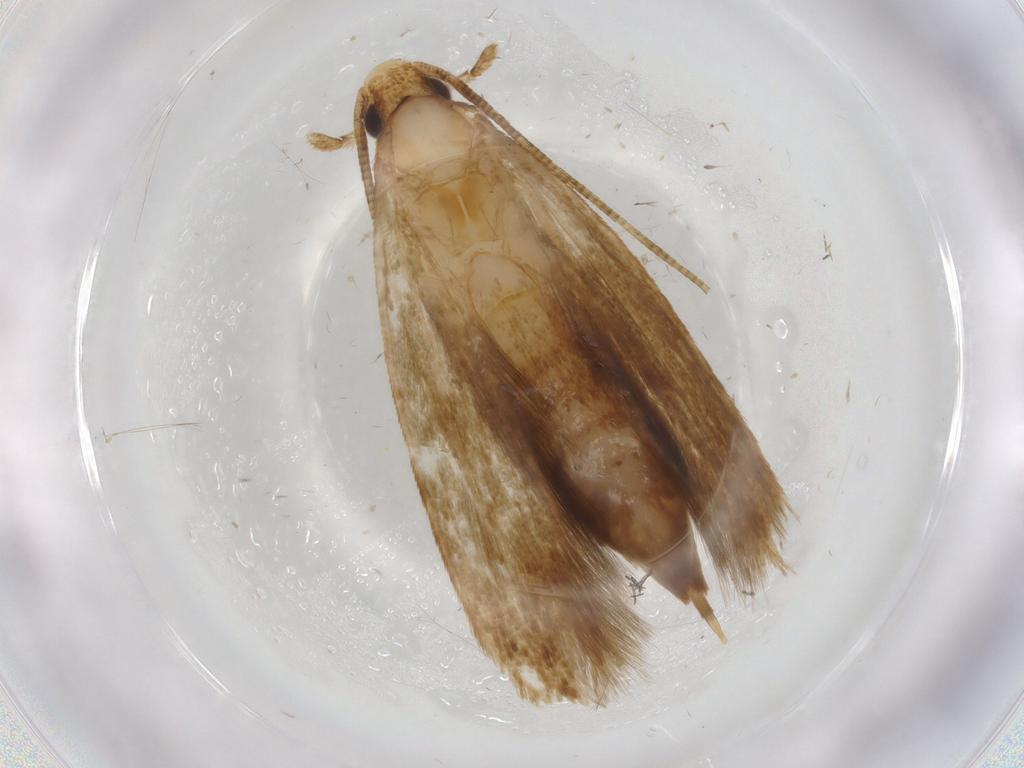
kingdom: Animalia
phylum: Arthropoda
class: Insecta
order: Lepidoptera
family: Tineidae
